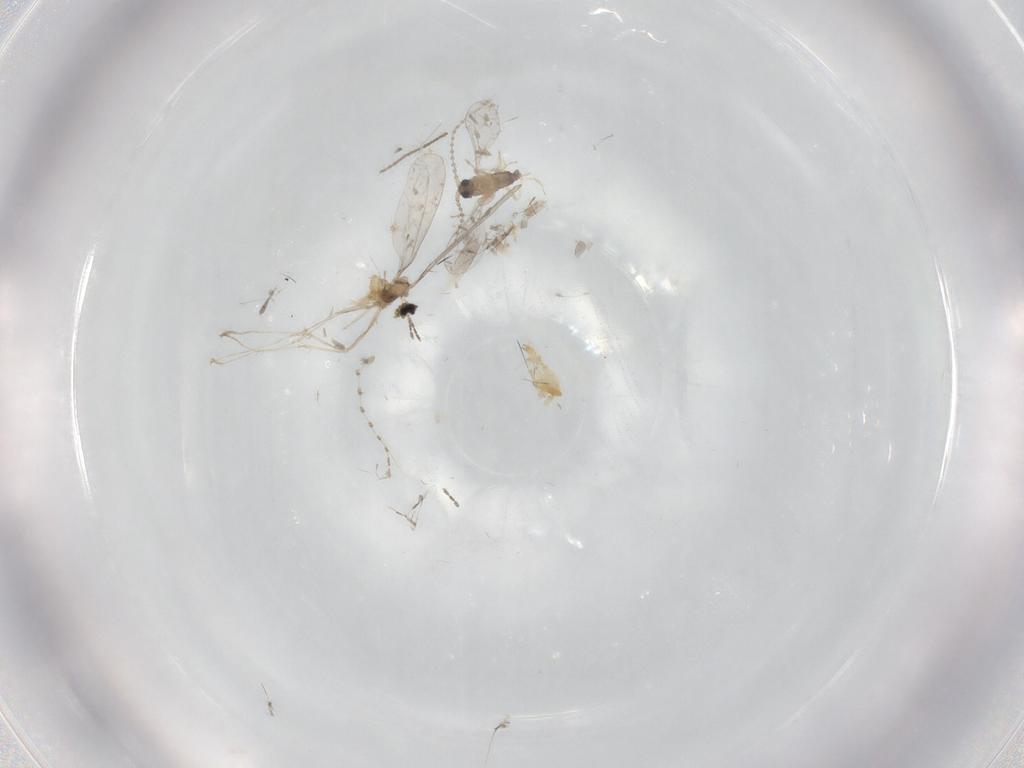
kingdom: Animalia
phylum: Arthropoda
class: Insecta
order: Diptera
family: Cecidomyiidae
